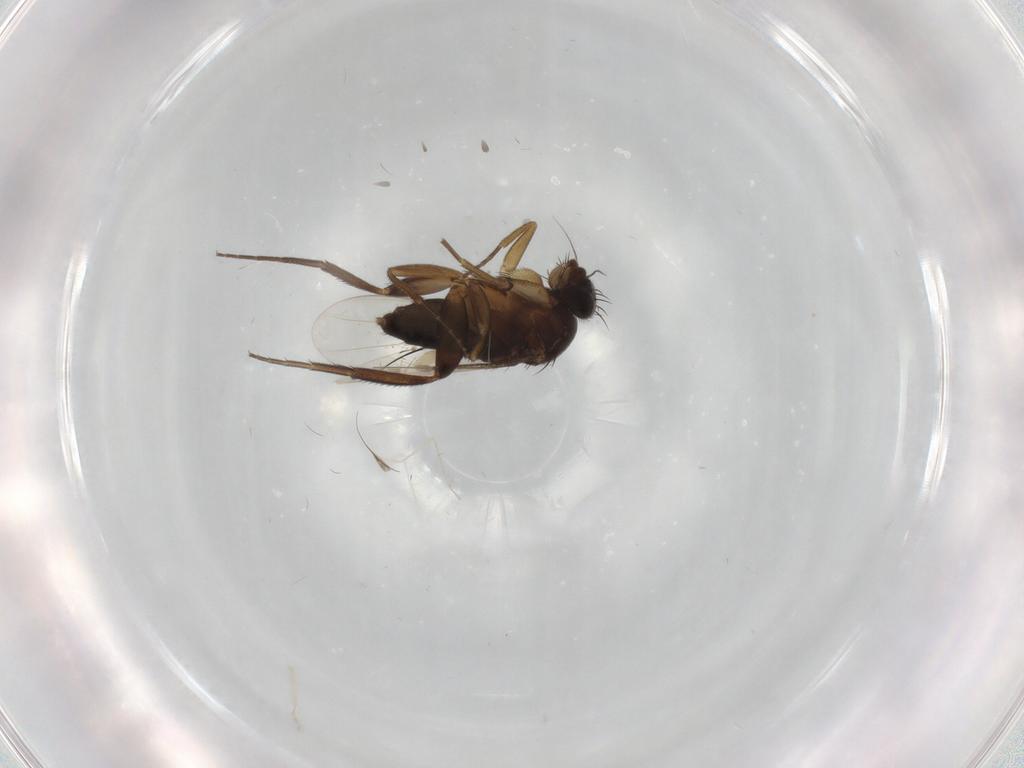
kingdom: Animalia
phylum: Arthropoda
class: Insecta
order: Diptera
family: Phoridae
